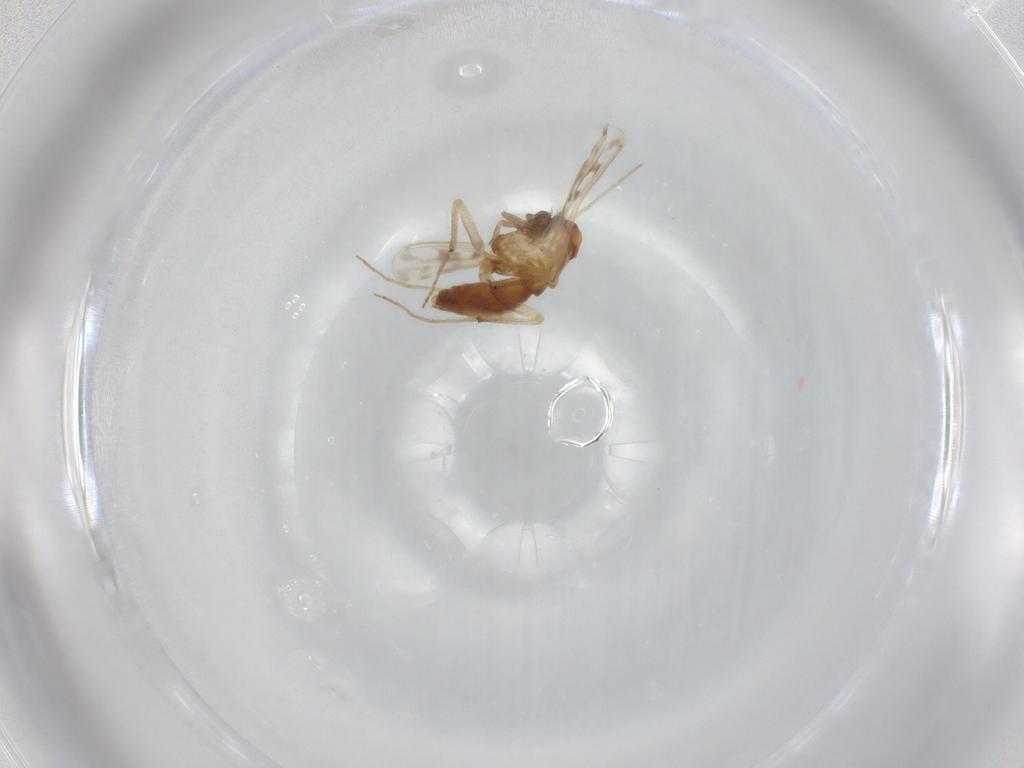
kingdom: Animalia
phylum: Arthropoda
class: Insecta
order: Diptera
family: Chironomidae
